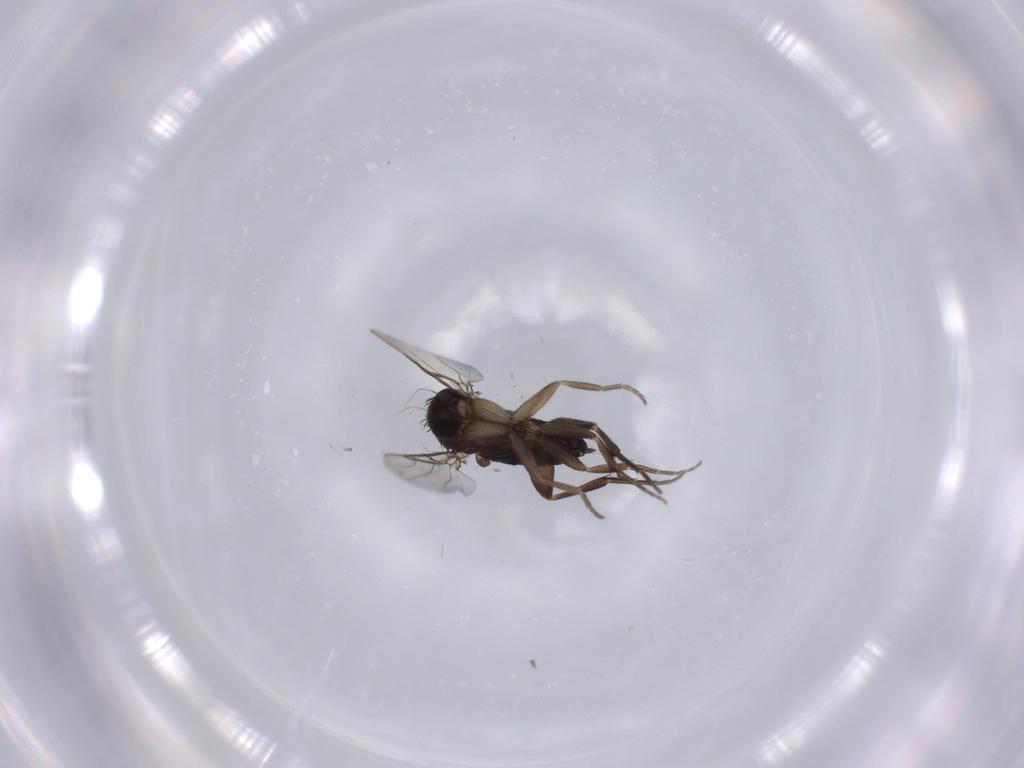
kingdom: Animalia
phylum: Arthropoda
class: Insecta
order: Diptera
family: Phoridae
